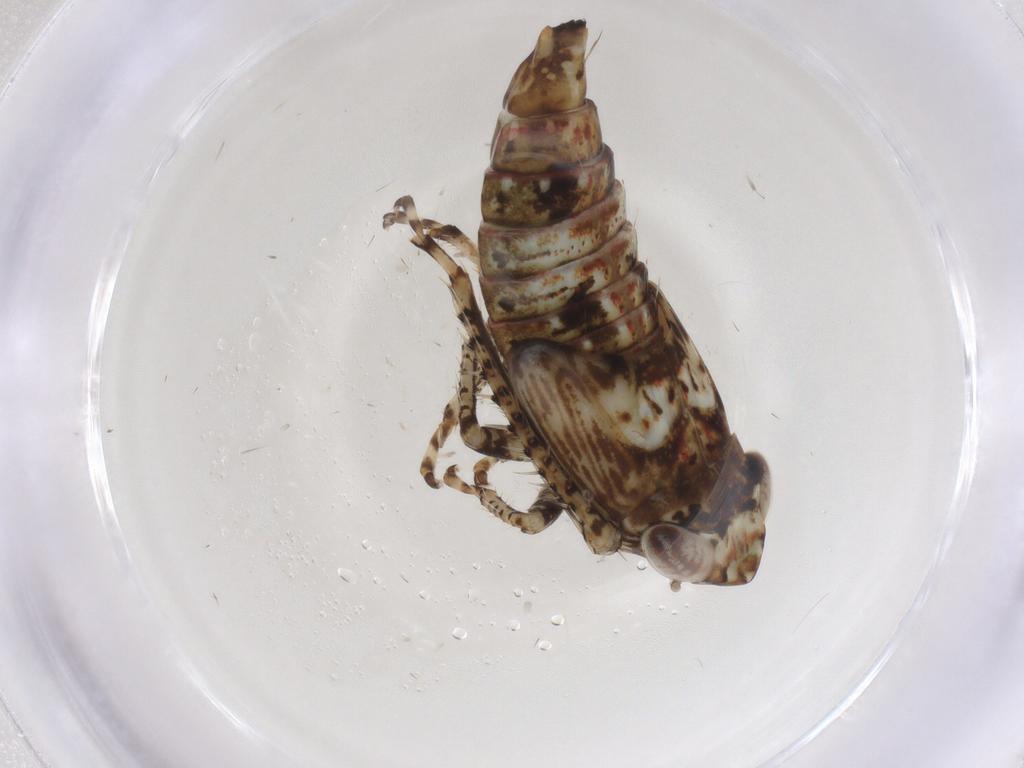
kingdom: Animalia
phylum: Arthropoda
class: Insecta
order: Hemiptera
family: Cicadellidae
